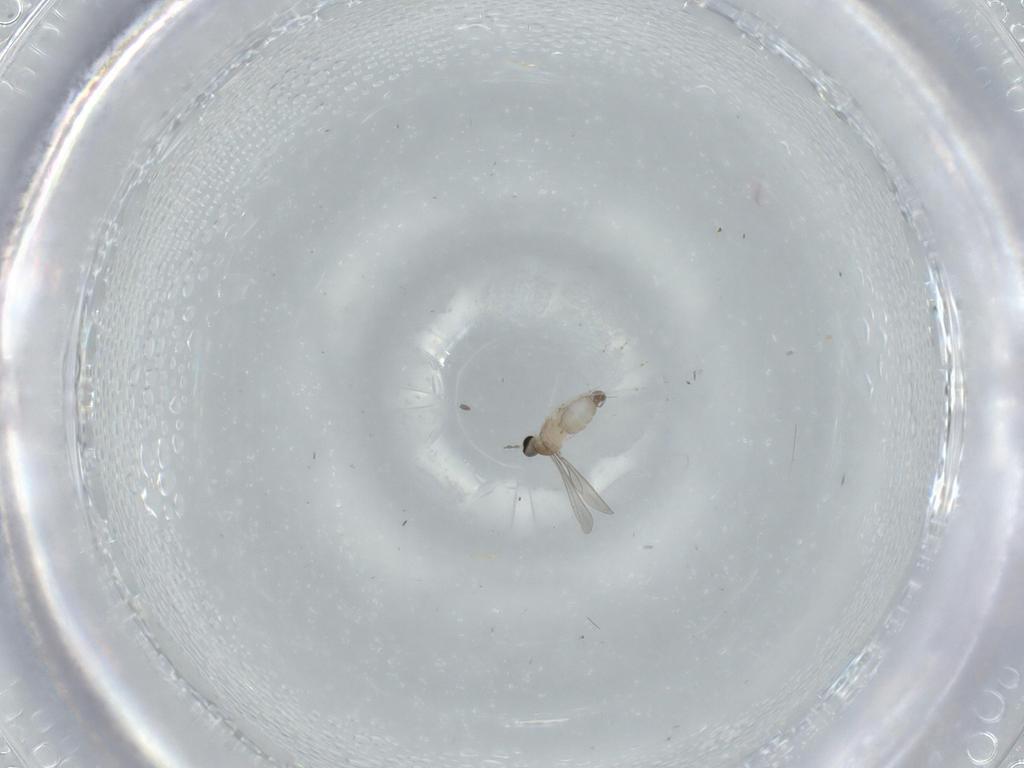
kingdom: Animalia
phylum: Arthropoda
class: Insecta
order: Diptera
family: Cecidomyiidae
